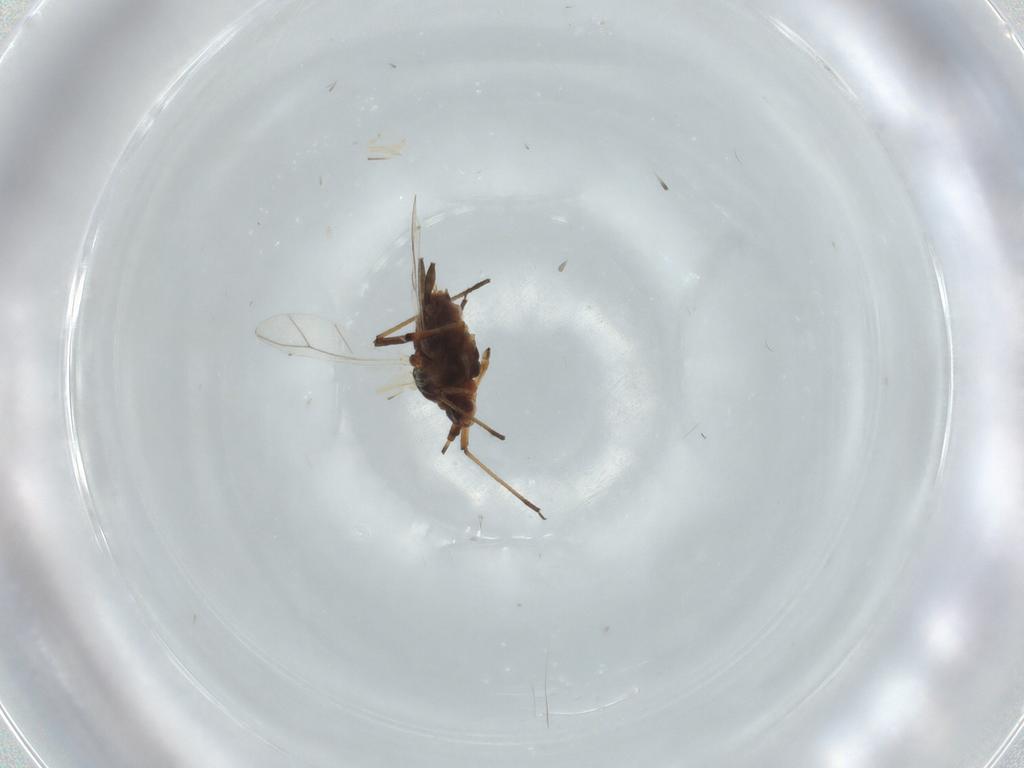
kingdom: Animalia
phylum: Arthropoda
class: Insecta
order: Hemiptera
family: Aphididae
